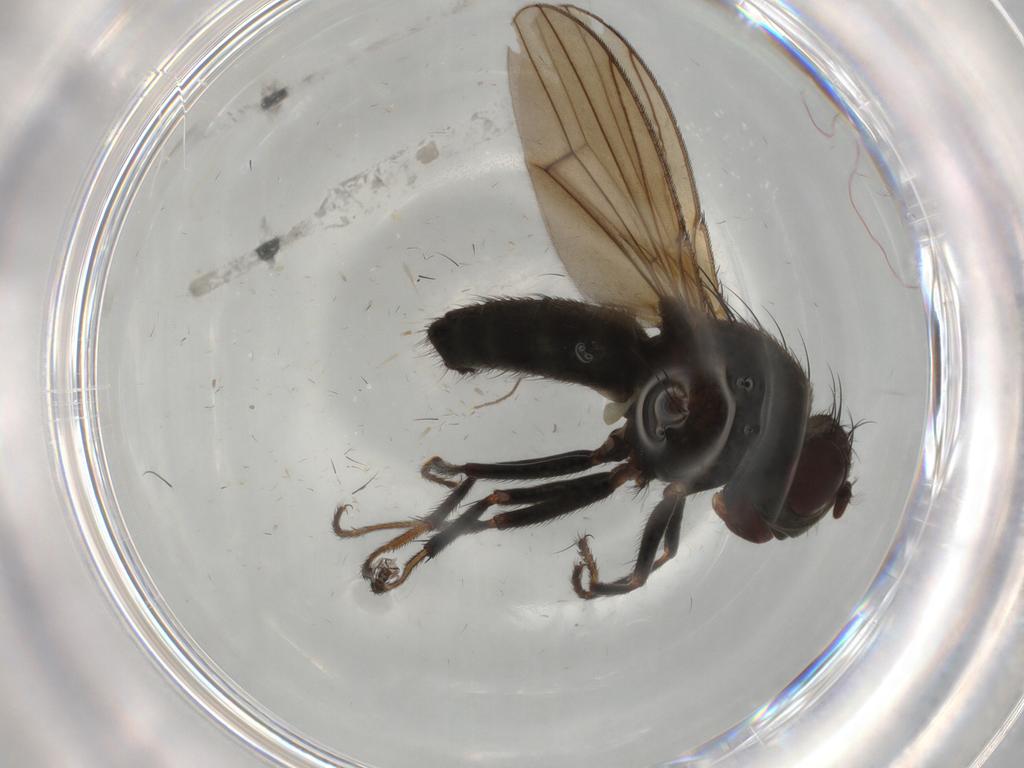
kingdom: Animalia
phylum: Arthropoda
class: Insecta
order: Diptera
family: Ephydridae
